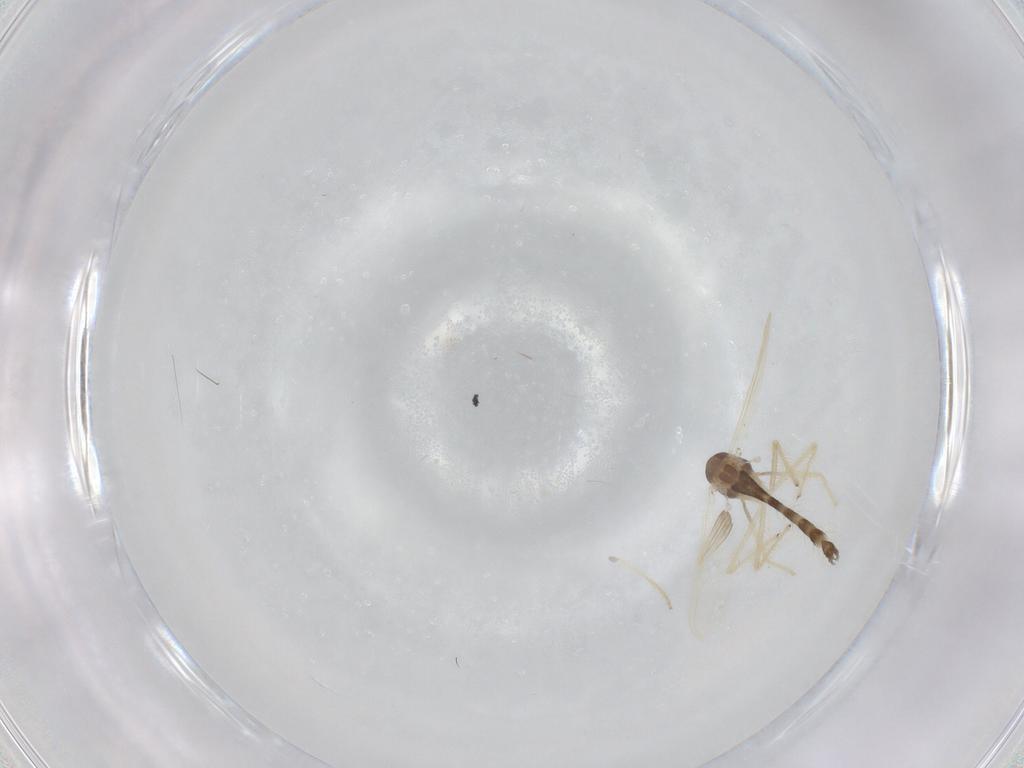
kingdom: Animalia
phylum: Arthropoda
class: Insecta
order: Diptera
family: Chironomidae
